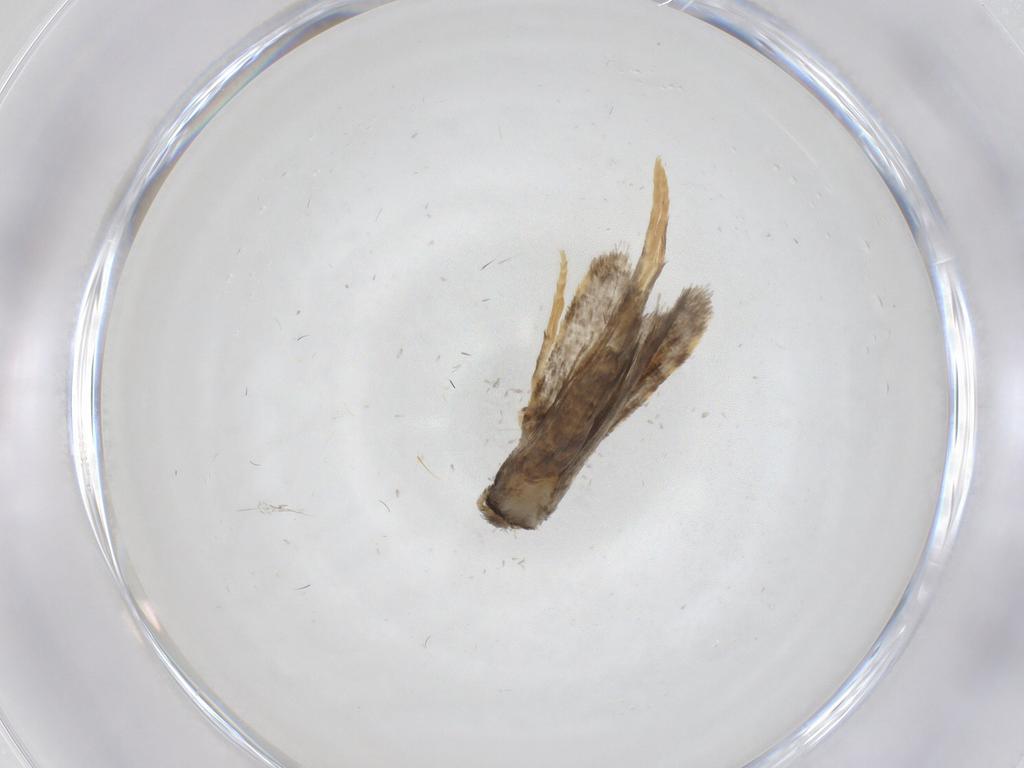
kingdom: Animalia
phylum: Arthropoda
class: Insecta
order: Lepidoptera
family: Psychidae
